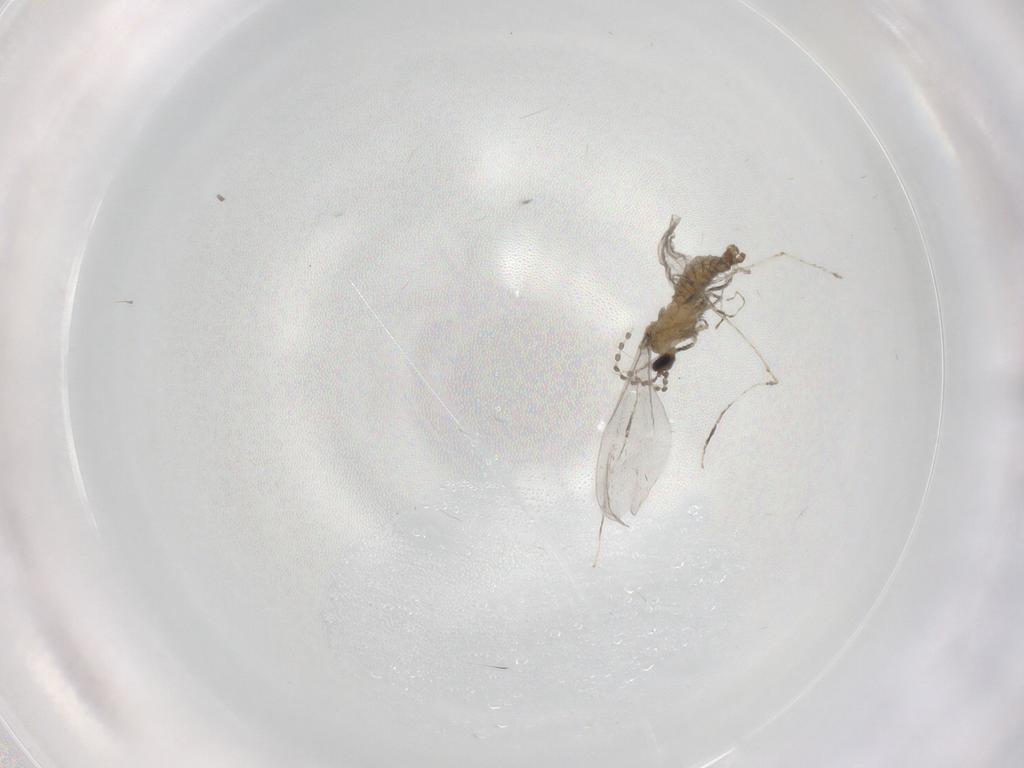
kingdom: Animalia
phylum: Arthropoda
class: Insecta
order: Diptera
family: Cecidomyiidae
